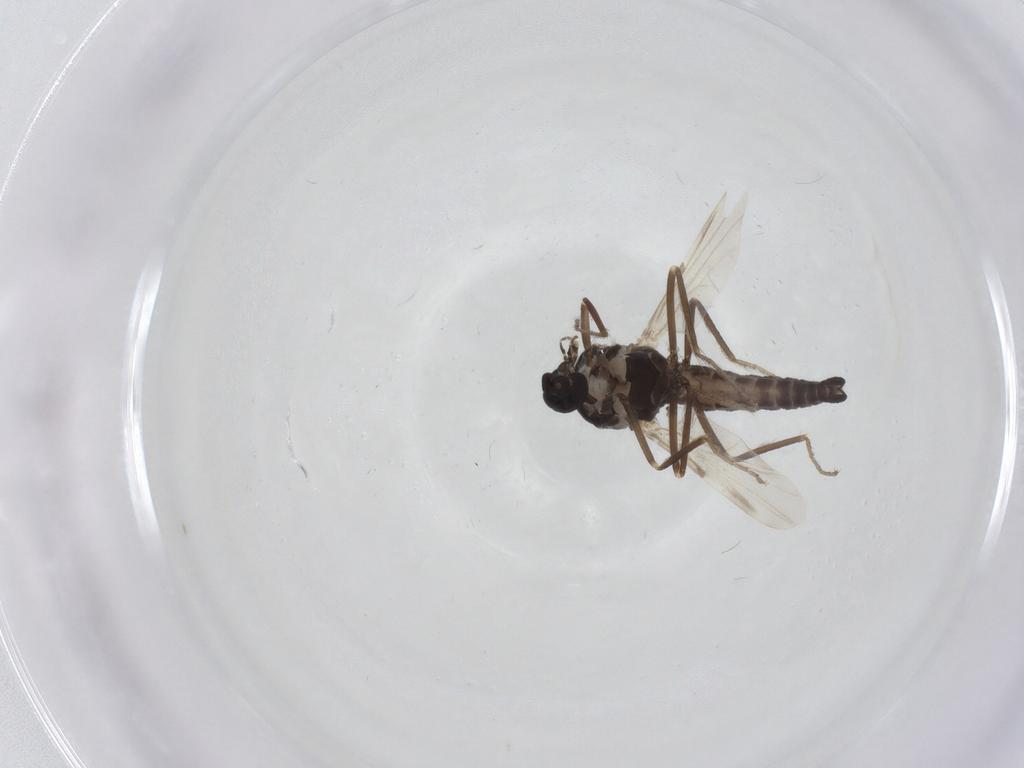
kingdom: Animalia
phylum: Arthropoda
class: Insecta
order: Diptera
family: Ceratopogonidae
